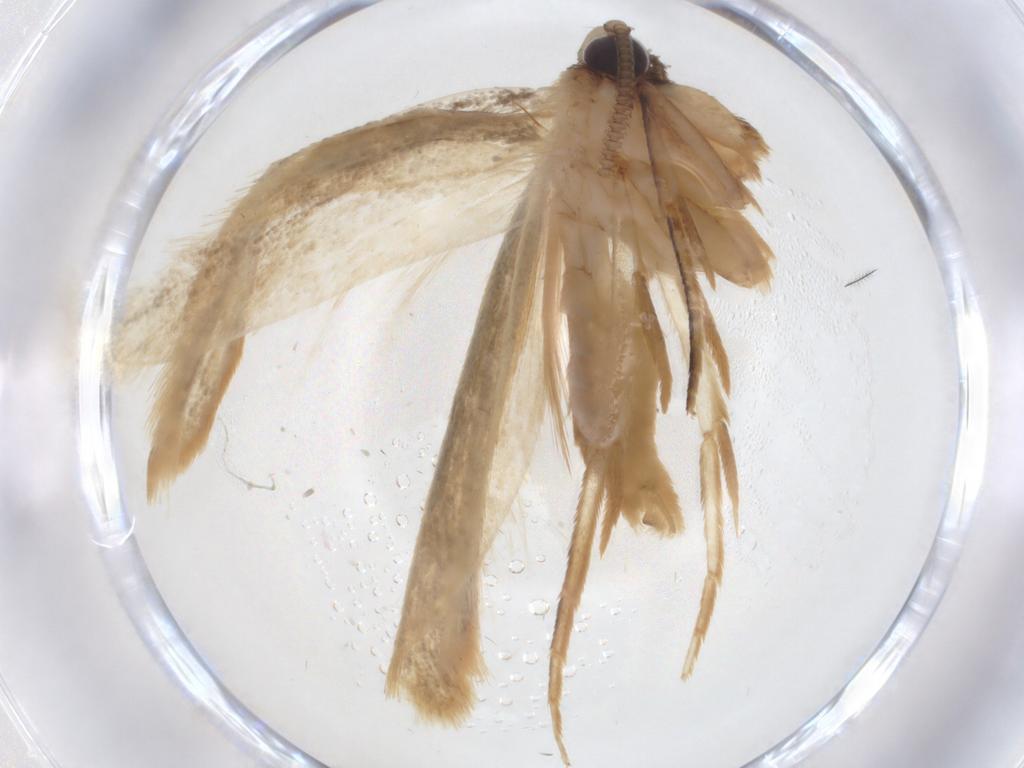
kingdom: Animalia
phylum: Arthropoda
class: Insecta
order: Lepidoptera
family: Tineidae
